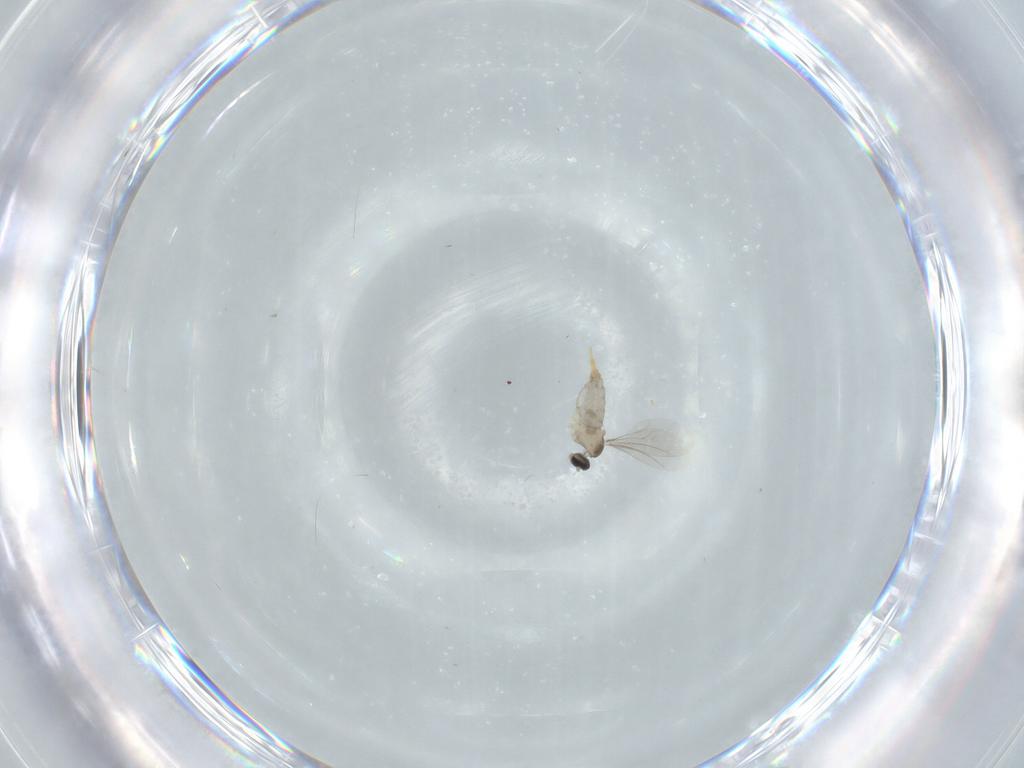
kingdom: Animalia
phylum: Arthropoda
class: Insecta
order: Diptera
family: Cecidomyiidae
